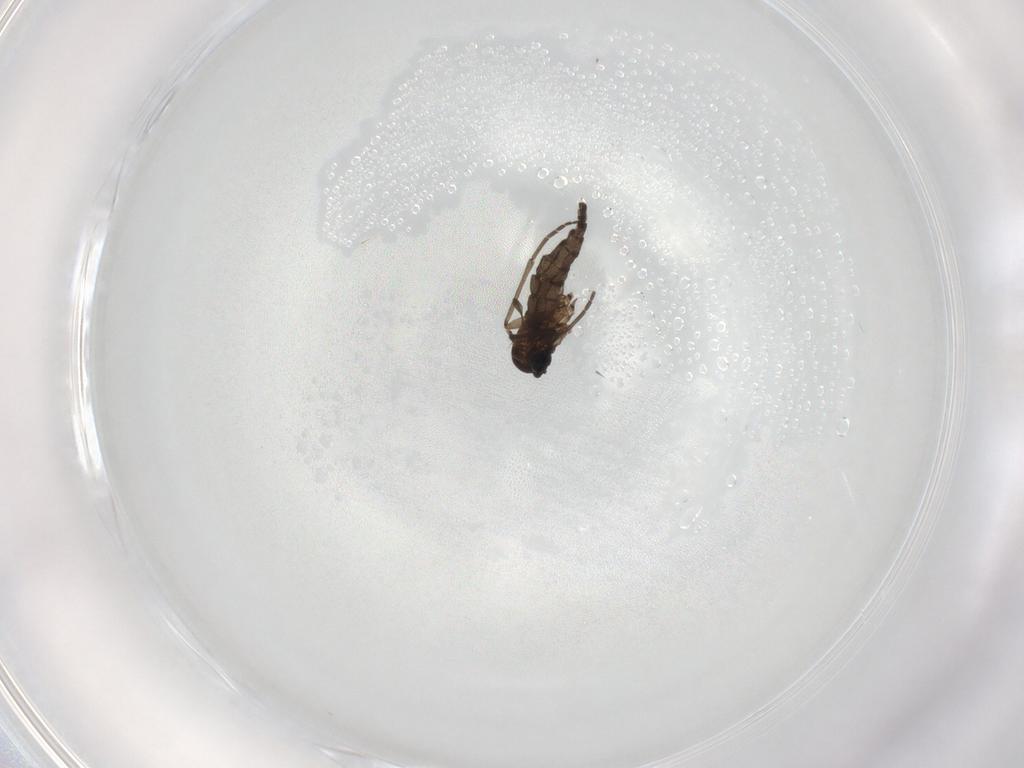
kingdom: Animalia
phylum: Arthropoda
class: Insecta
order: Diptera
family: Sciaridae
